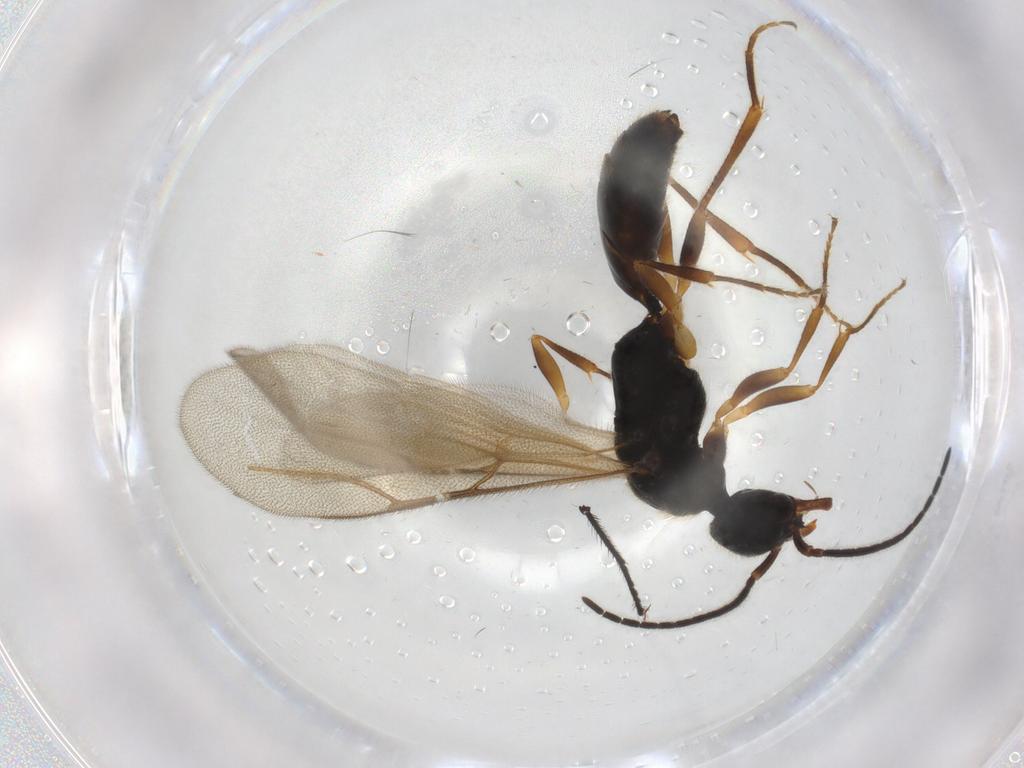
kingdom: Animalia
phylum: Arthropoda
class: Insecta
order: Hymenoptera
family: Bethylidae
